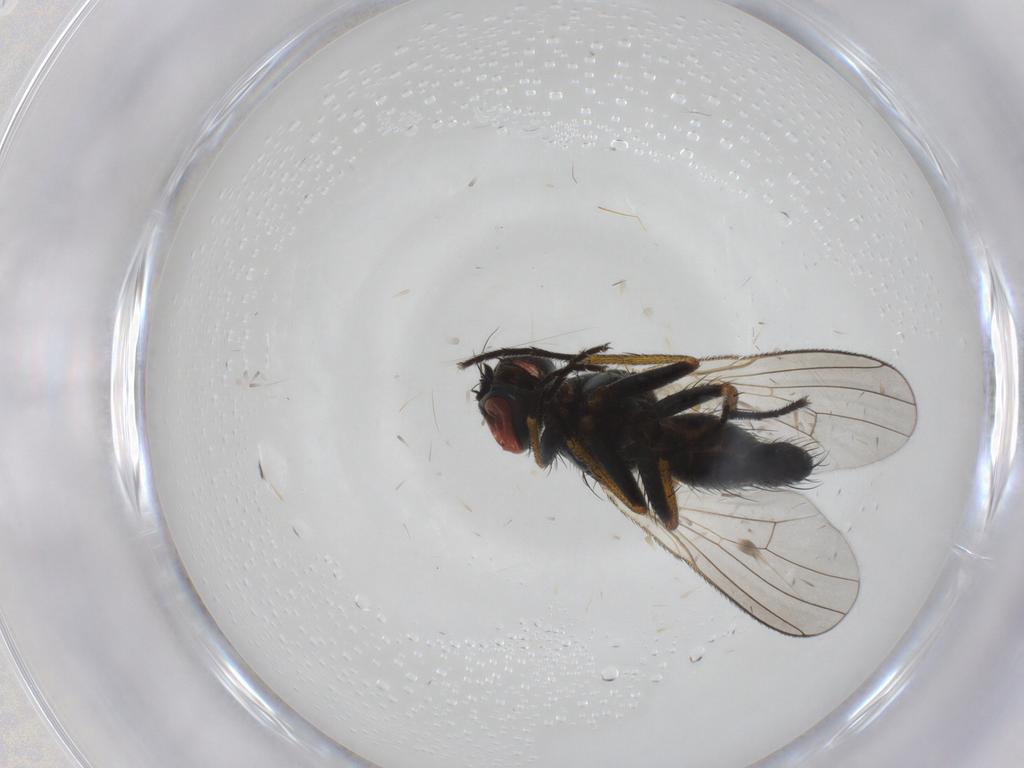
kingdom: Animalia
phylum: Arthropoda
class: Insecta
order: Diptera
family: Muscidae
